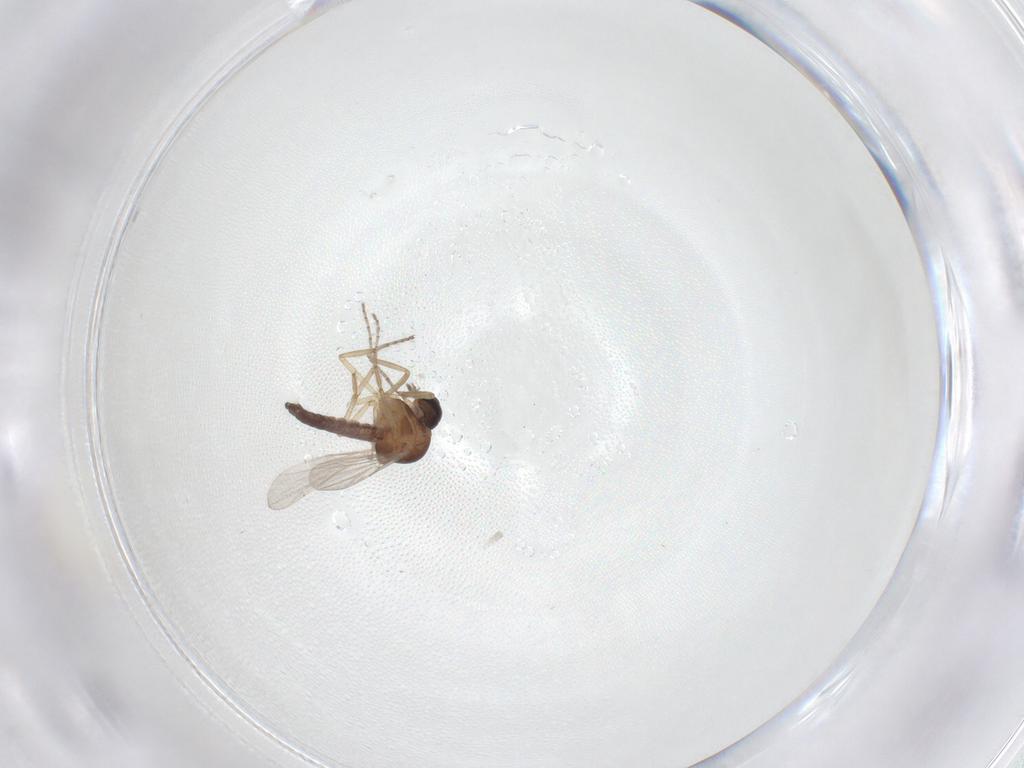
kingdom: Animalia
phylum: Arthropoda
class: Insecta
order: Diptera
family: Ceratopogonidae
